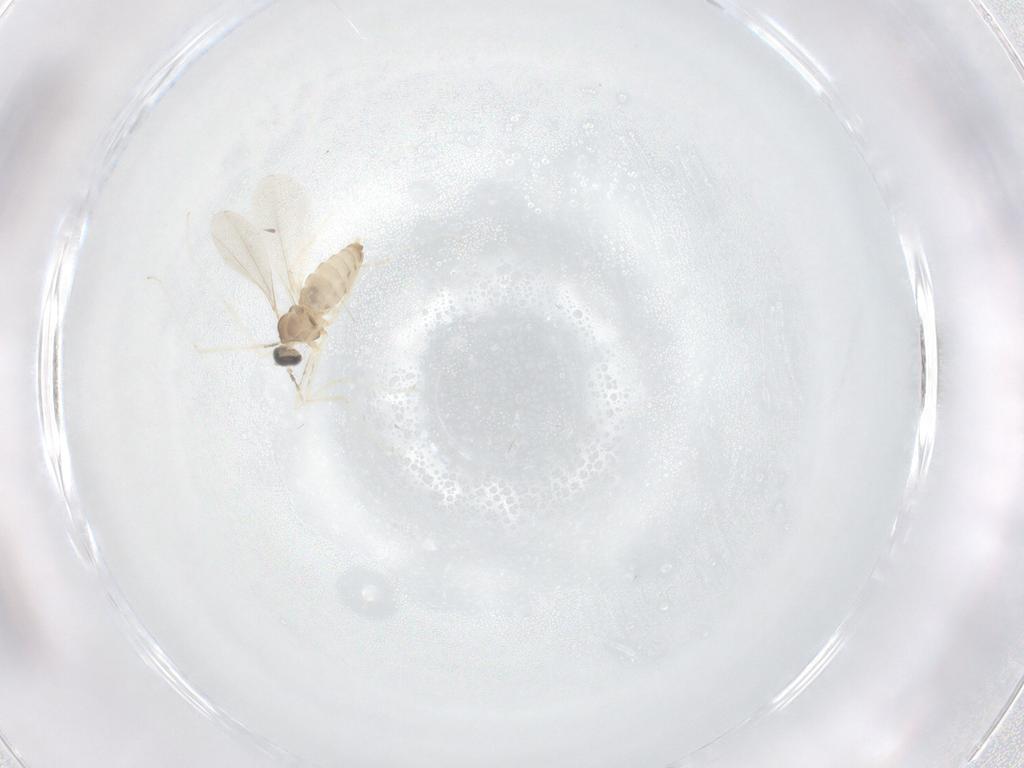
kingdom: Animalia
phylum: Arthropoda
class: Insecta
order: Diptera
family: Cecidomyiidae
